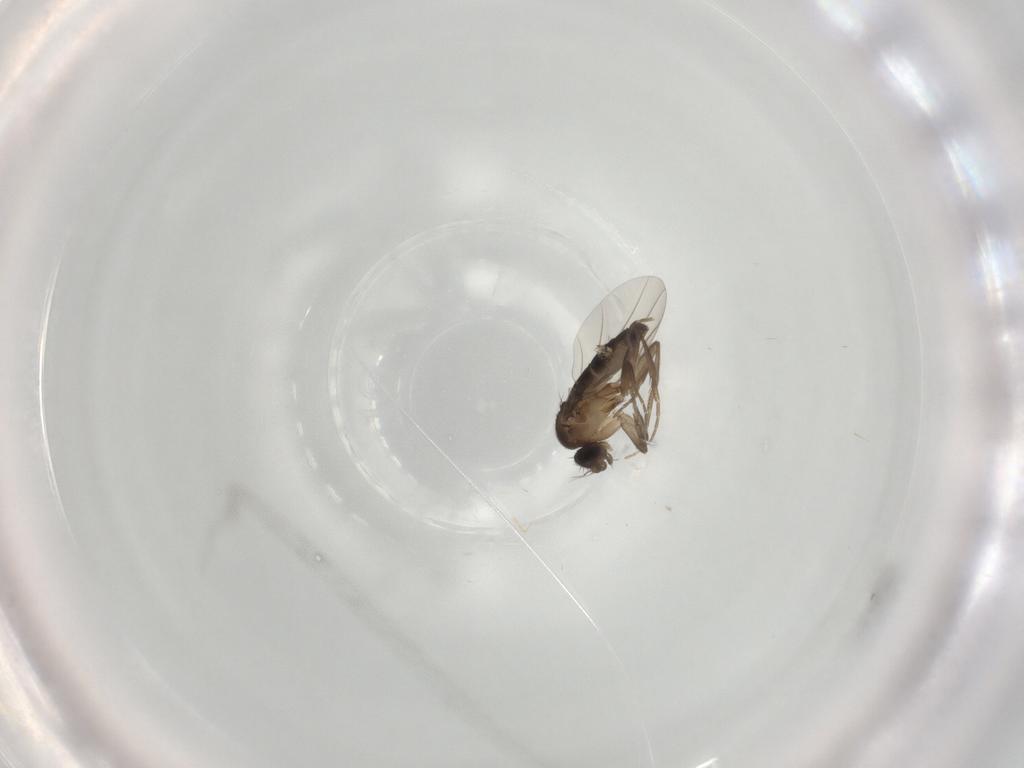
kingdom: Animalia
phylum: Arthropoda
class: Insecta
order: Diptera
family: Phoridae
